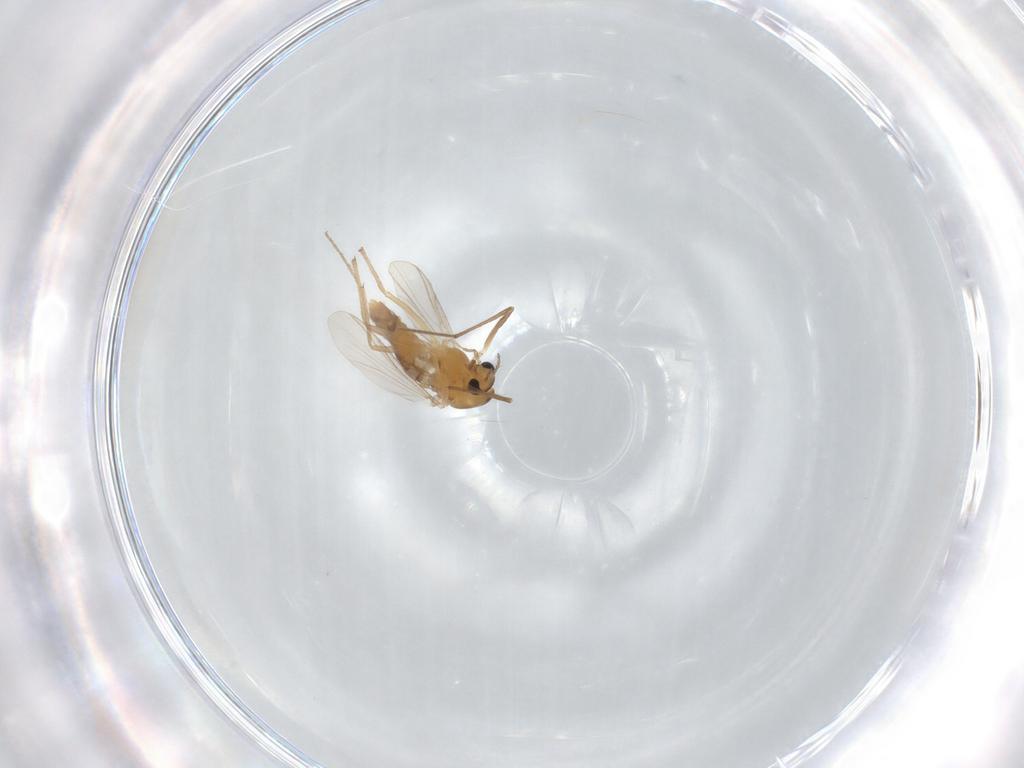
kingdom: Animalia
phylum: Arthropoda
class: Insecta
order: Diptera
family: Chironomidae
